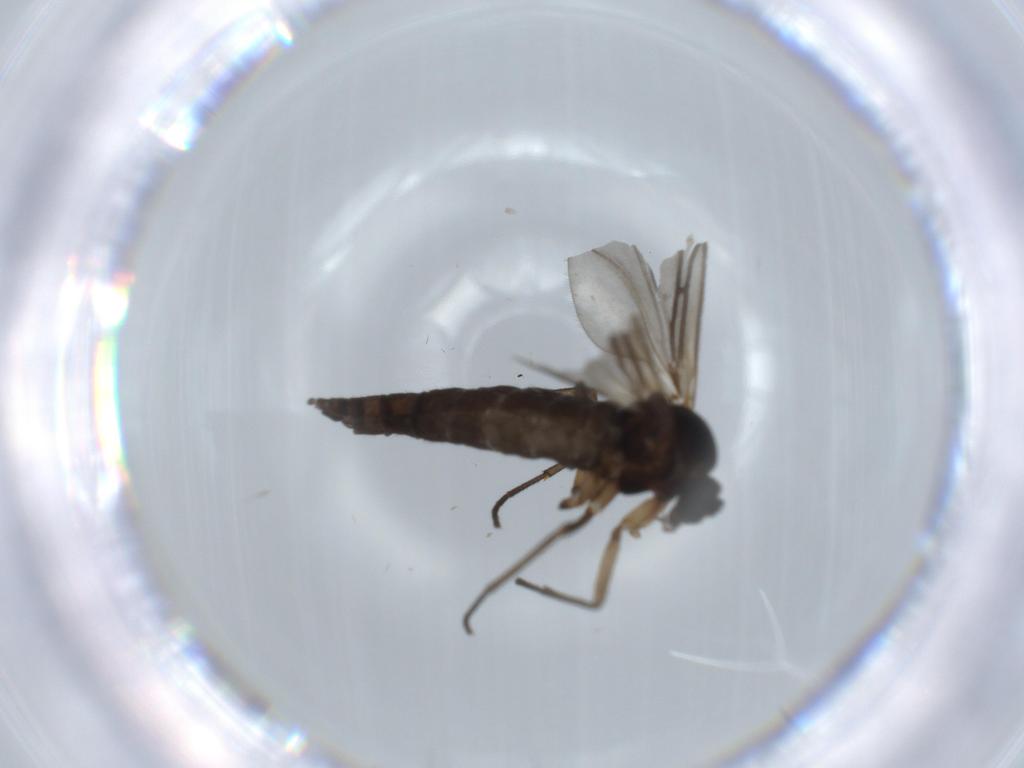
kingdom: Animalia
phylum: Arthropoda
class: Insecta
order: Diptera
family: Sciaridae
